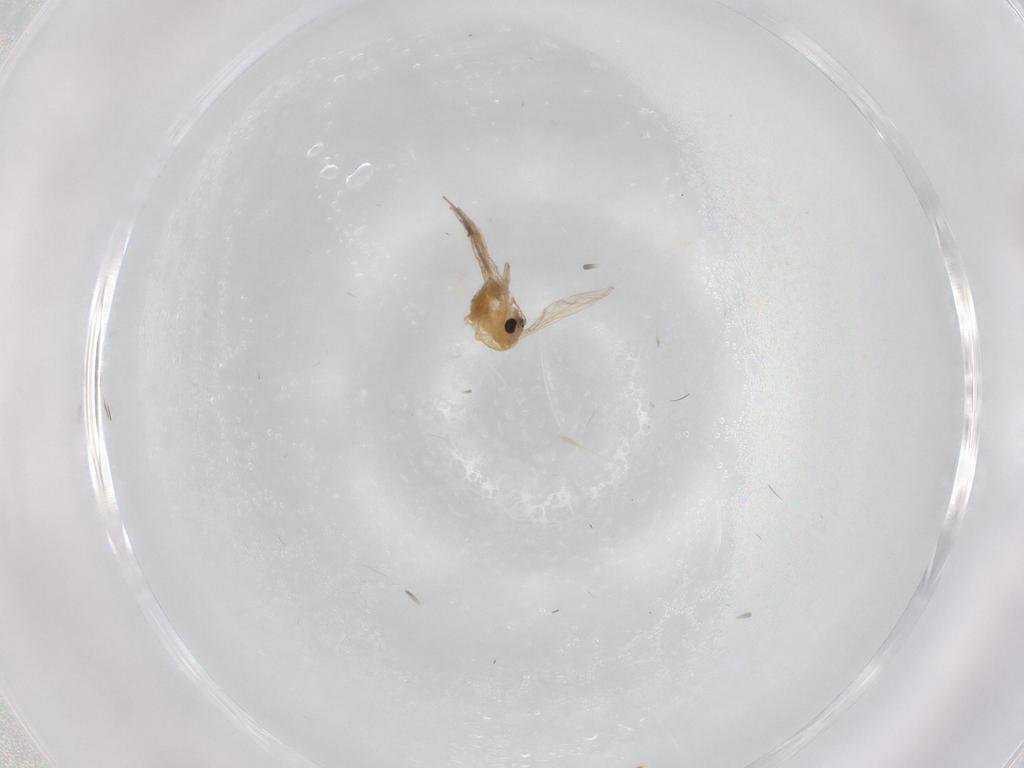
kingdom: Animalia
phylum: Arthropoda
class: Insecta
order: Diptera
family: Chironomidae
